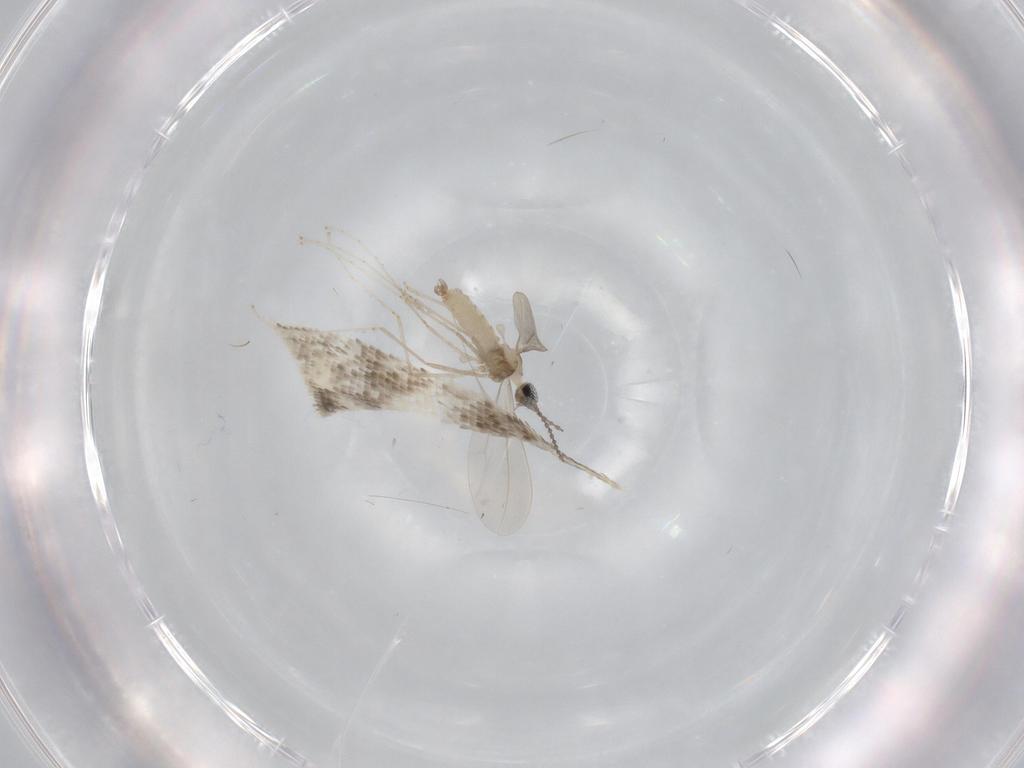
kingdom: Animalia
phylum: Arthropoda
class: Insecta
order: Diptera
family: Cecidomyiidae
